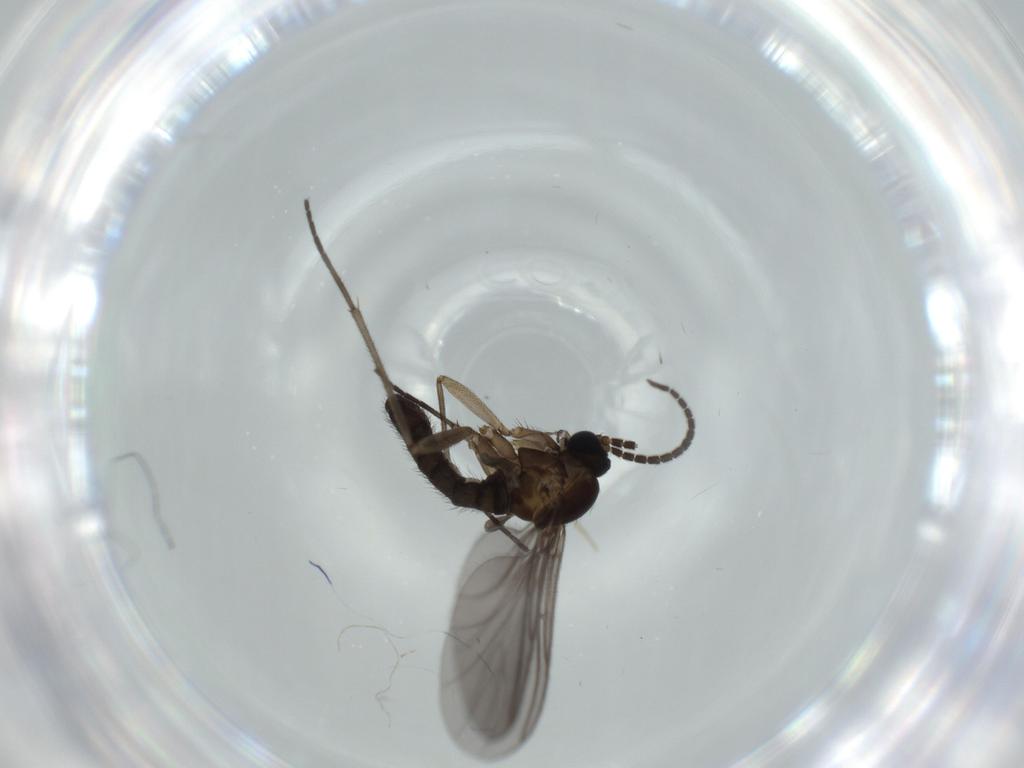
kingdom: Animalia
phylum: Arthropoda
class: Insecta
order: Diptera
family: Sciaridae
